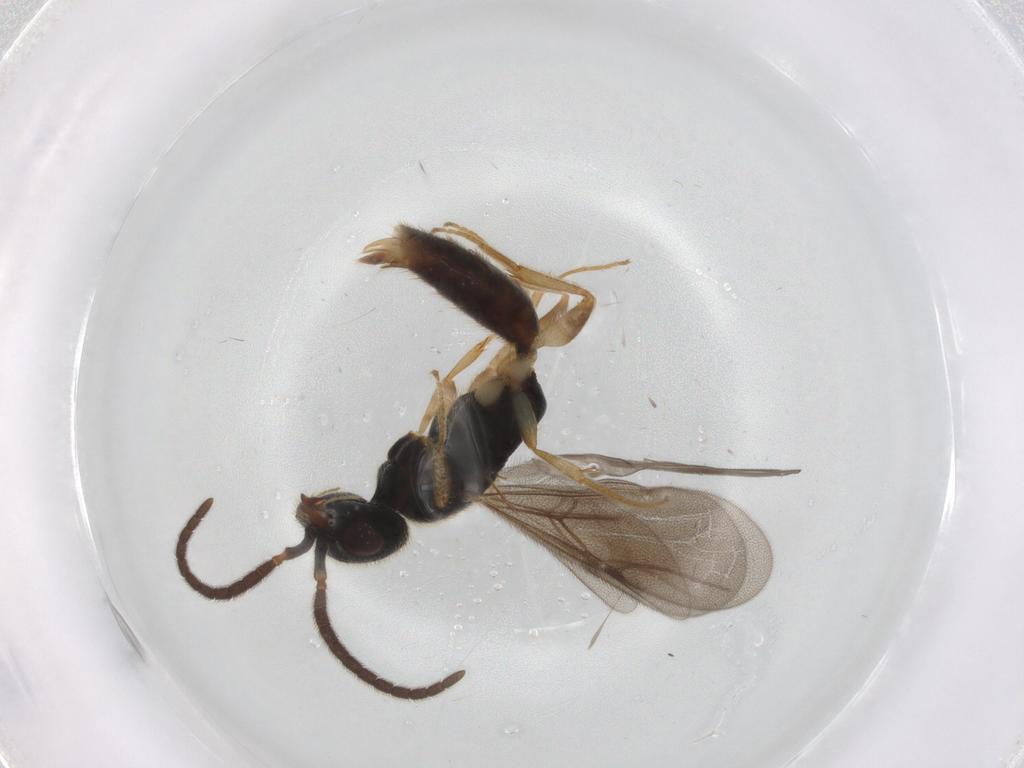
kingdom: Animalia
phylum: Arthropoda
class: Insecta
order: Hymenoptera
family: Bethylidae
